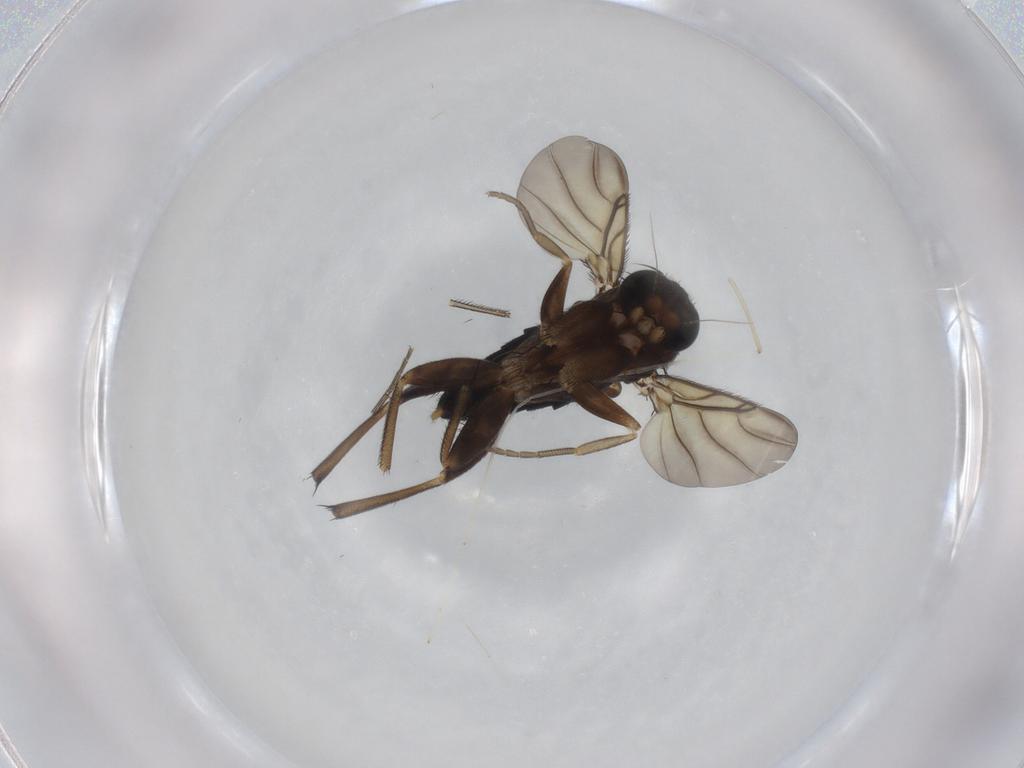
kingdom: Animalia
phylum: Arthropoda
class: Insecta
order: Diptera
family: Phoridae
